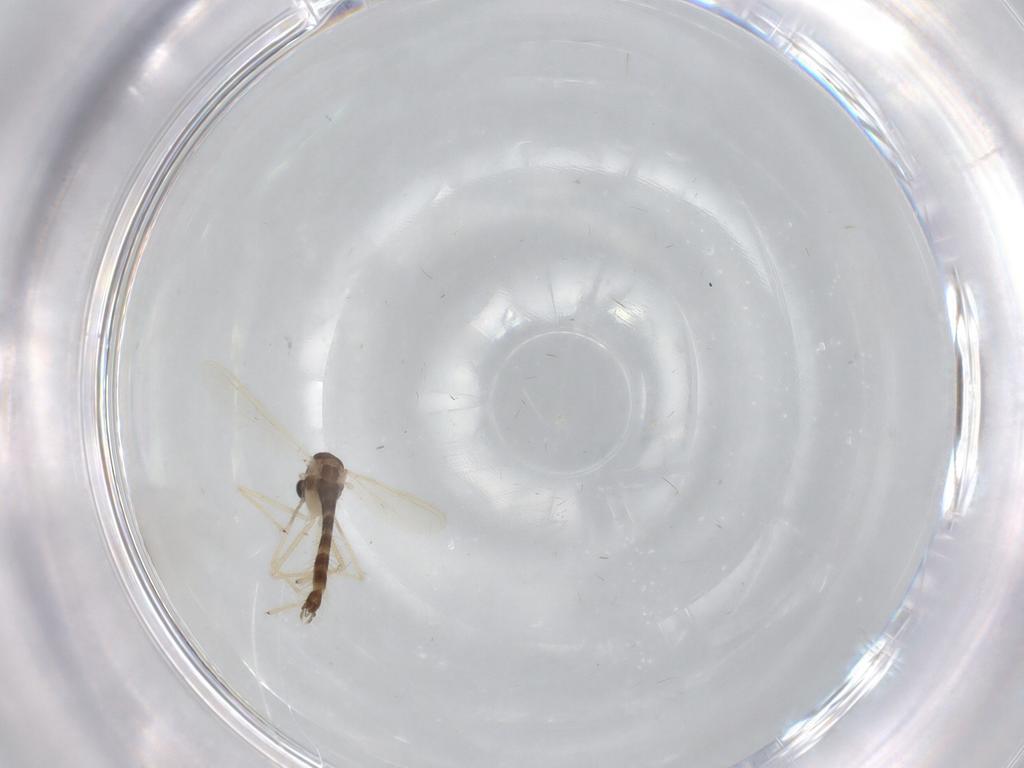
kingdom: Animalia
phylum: Arthropoda
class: Insecta
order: Diptera
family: Chironomidae
